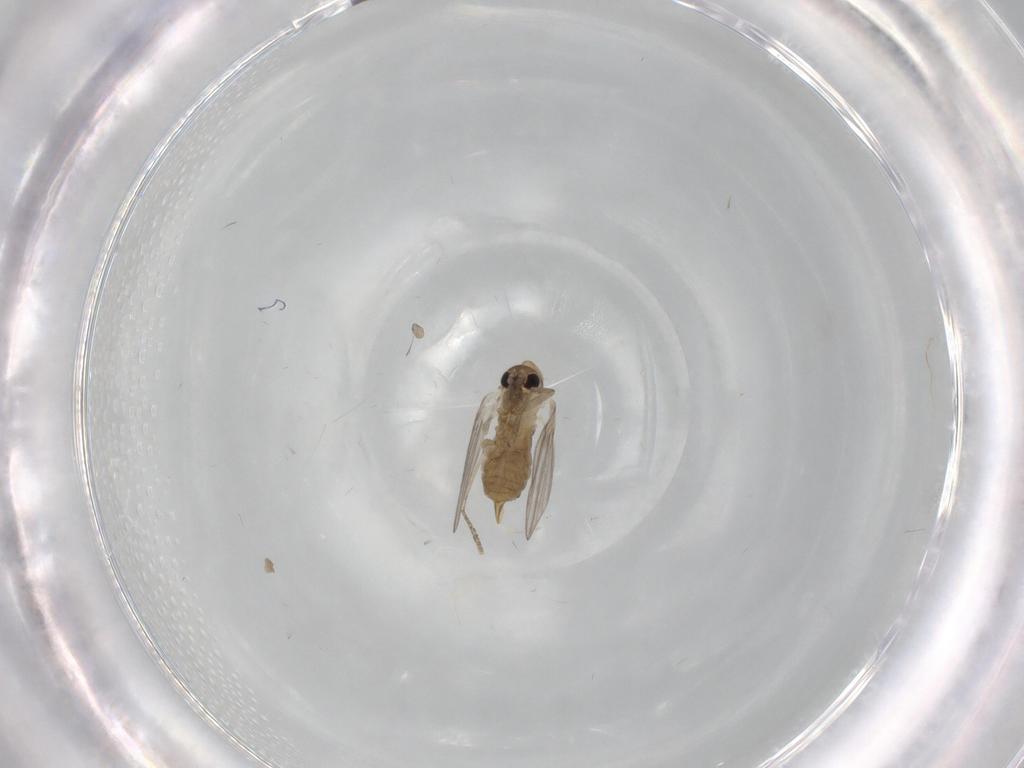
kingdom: Animalia
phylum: Arthropoda
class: Insecta
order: Diptera
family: Psychodidae
